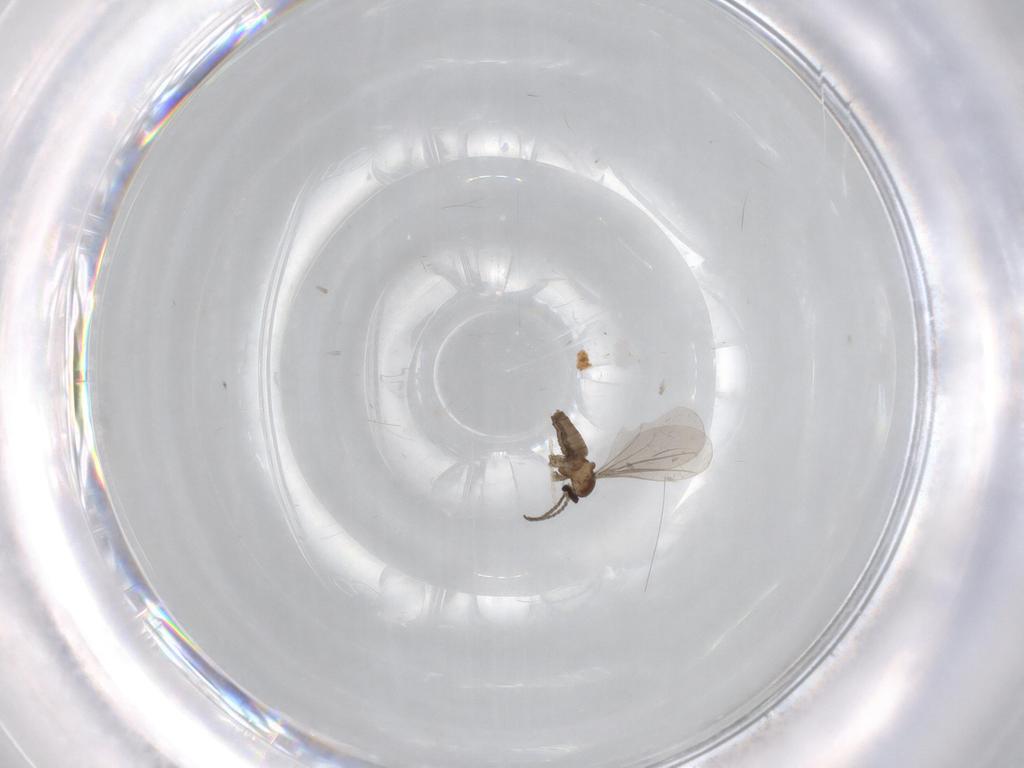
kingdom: Animalia
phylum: Arthropoda
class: Insecta
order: Diptera
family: Cecidomyiidae
